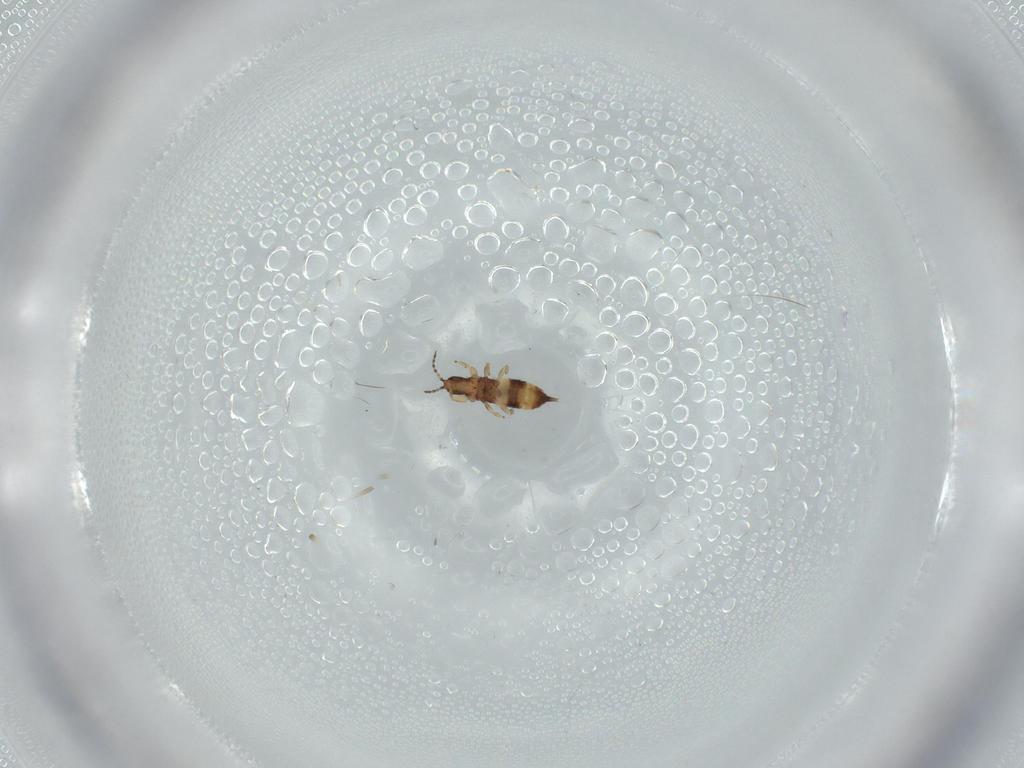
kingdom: Animalia
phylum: Arthropoda
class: Insecta
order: Thysanoptera
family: Phlaeothripidae
